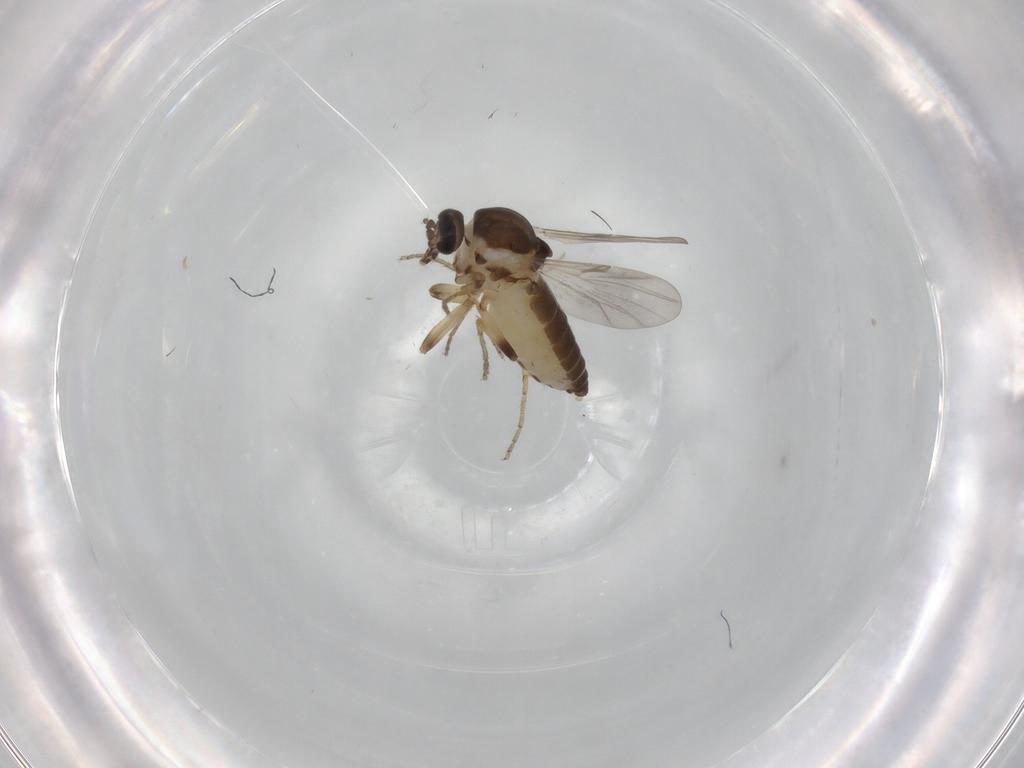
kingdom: Animalia
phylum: Arthropoda
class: Insecta
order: Diptera
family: Ceratopogonidae
